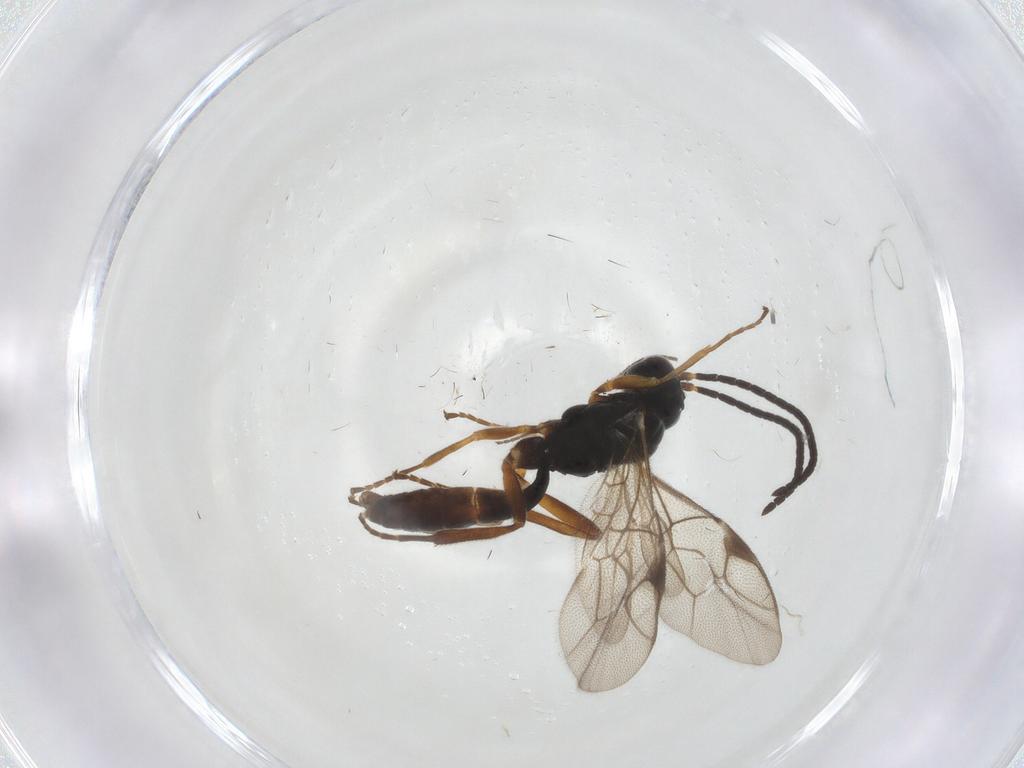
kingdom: Animalia
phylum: Arthropoda
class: Insecta
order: Hymenoptera
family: Ichneumonidae
